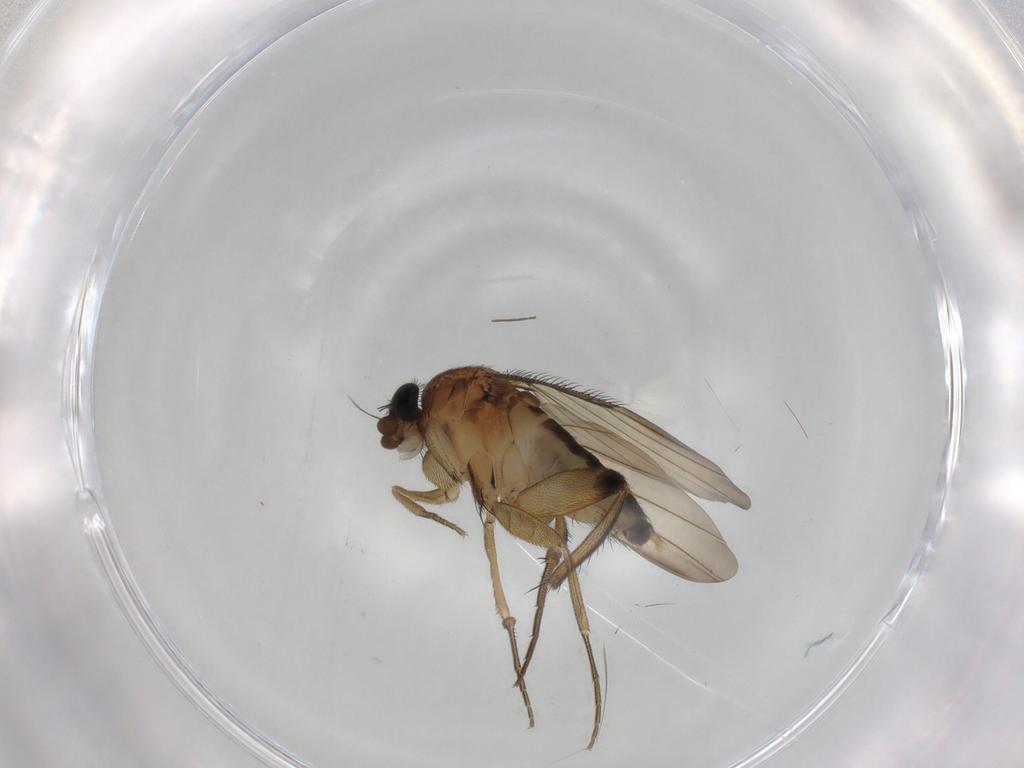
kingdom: Animalia
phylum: Arthropoda
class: Insecta
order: Diptera
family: Phoridae
